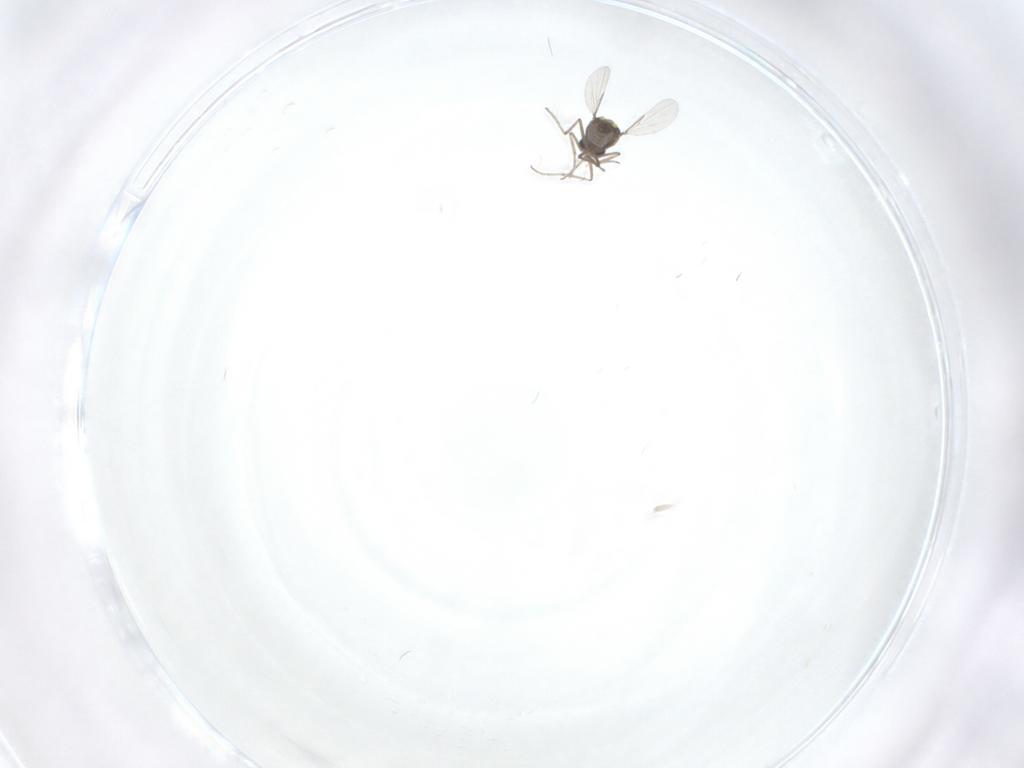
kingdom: Animalia
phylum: Arthropoda
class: Insecta
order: Diptera
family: Ceratopogonidae
